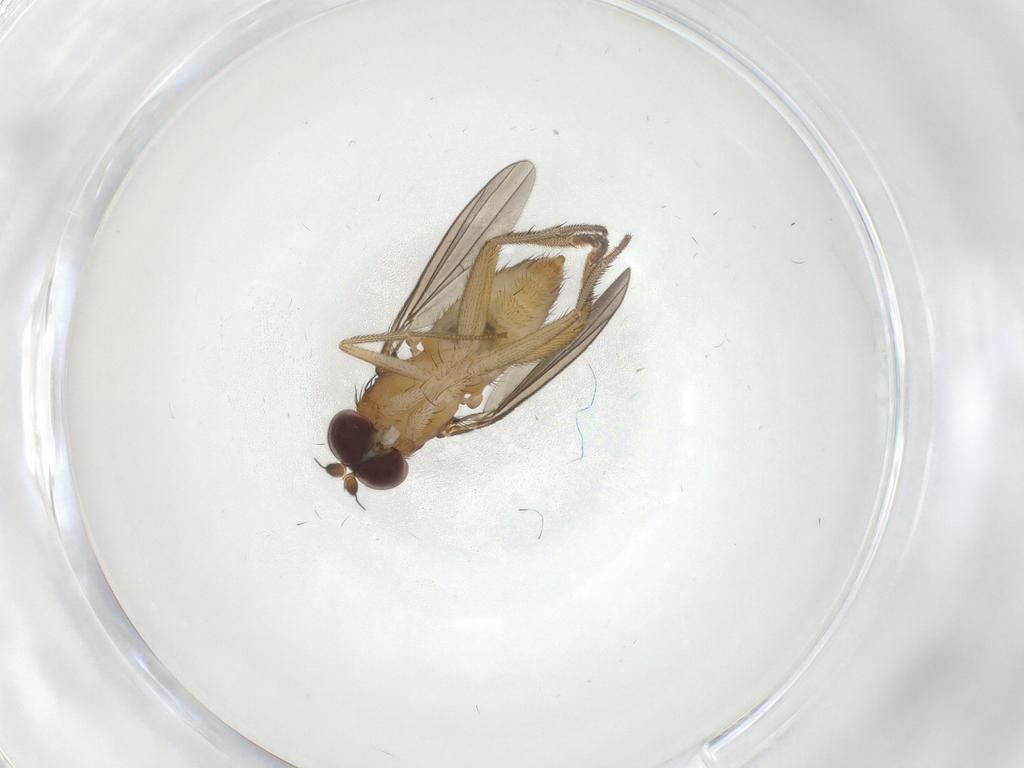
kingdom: Animalia
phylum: Arthropoda
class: Insecta
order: Diptera
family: Dolichopodidae
